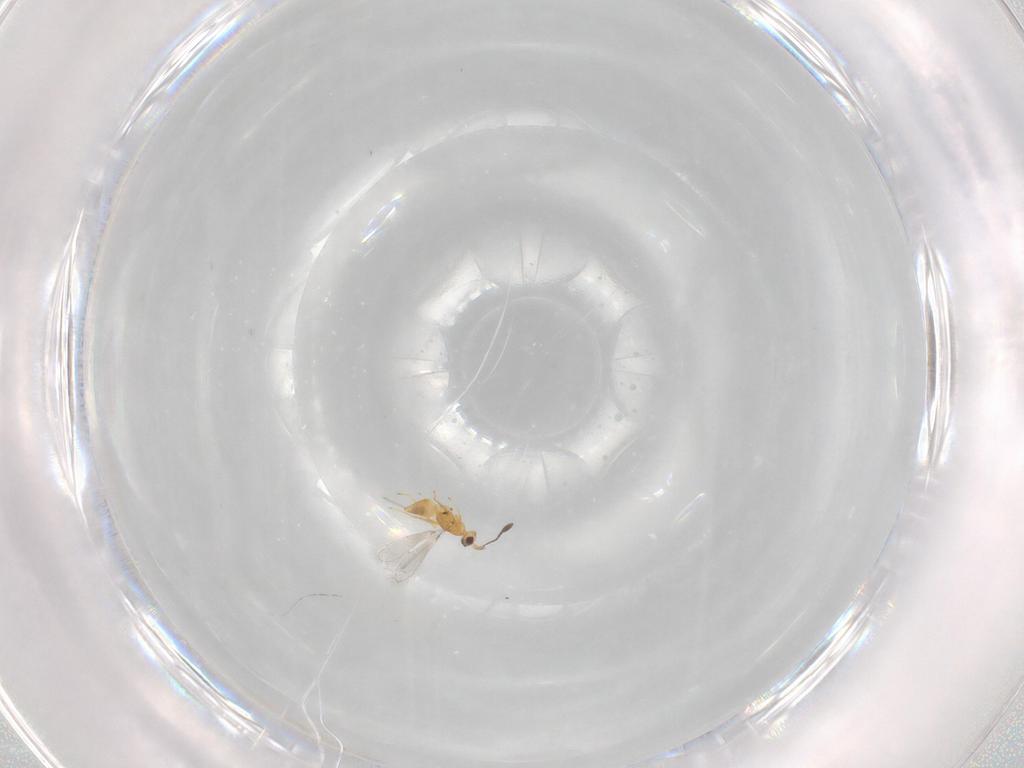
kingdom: Animalia
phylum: Arthropoda
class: Insecta
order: Hymenoptera
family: Mymaridae
